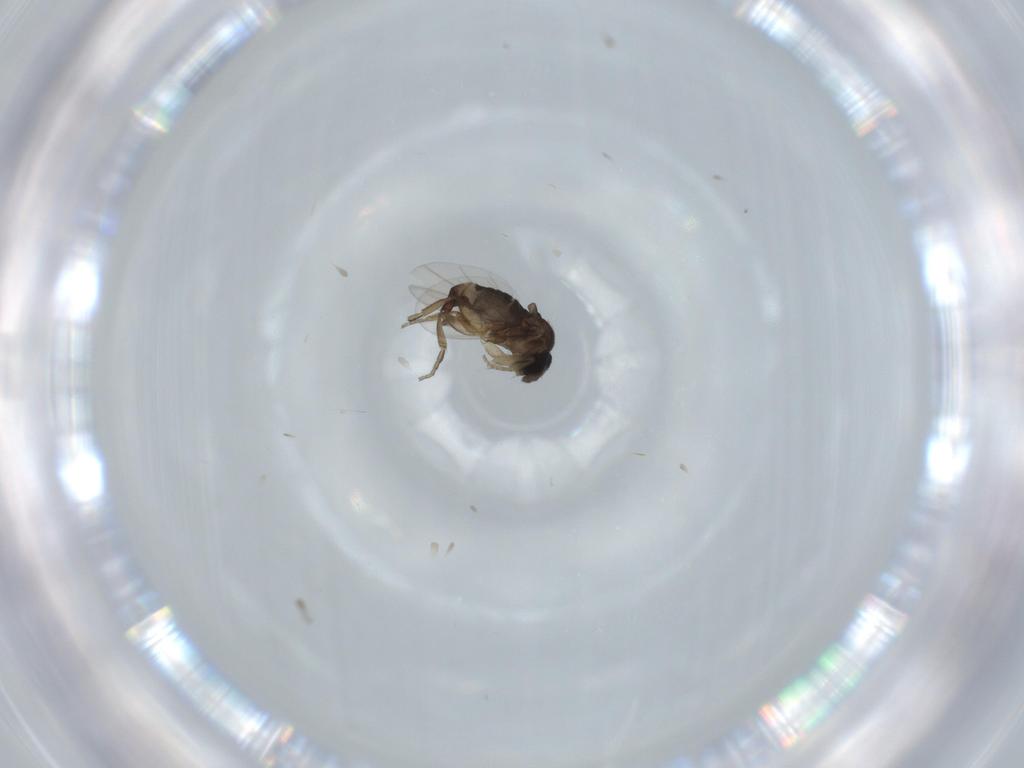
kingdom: Animalia
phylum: Arthropoda
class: Insecta
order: Diptera
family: Phoridae
